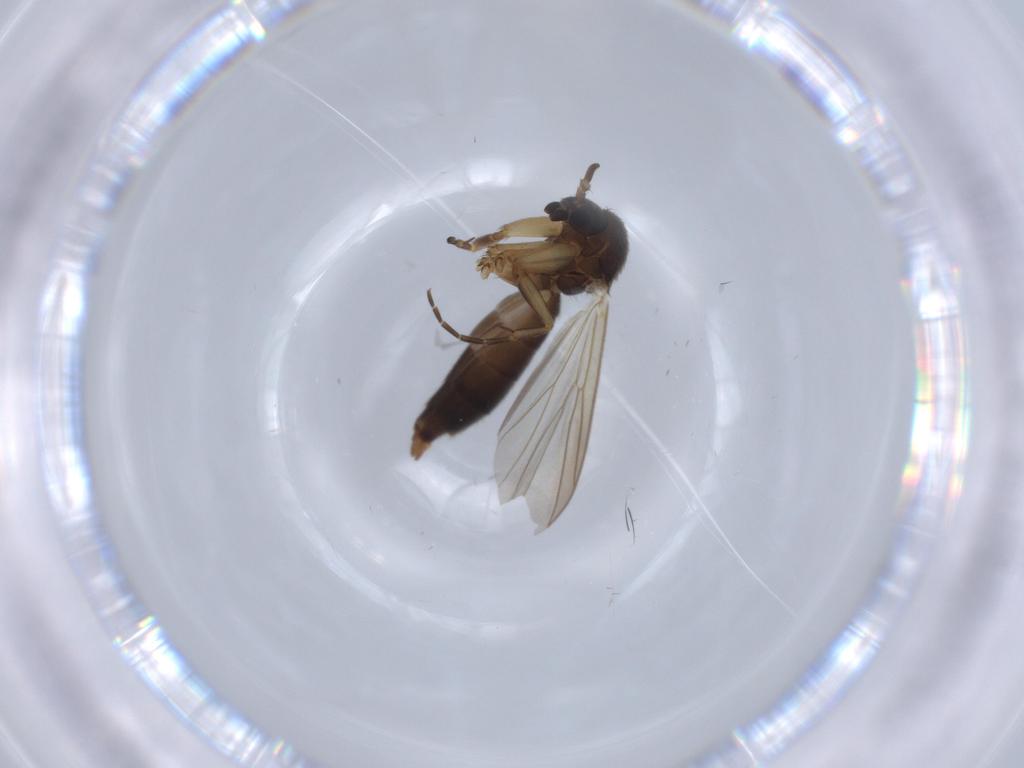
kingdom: Animalia
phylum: Arthropoda
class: Insecta
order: Diptera
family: Mycetophilidae
